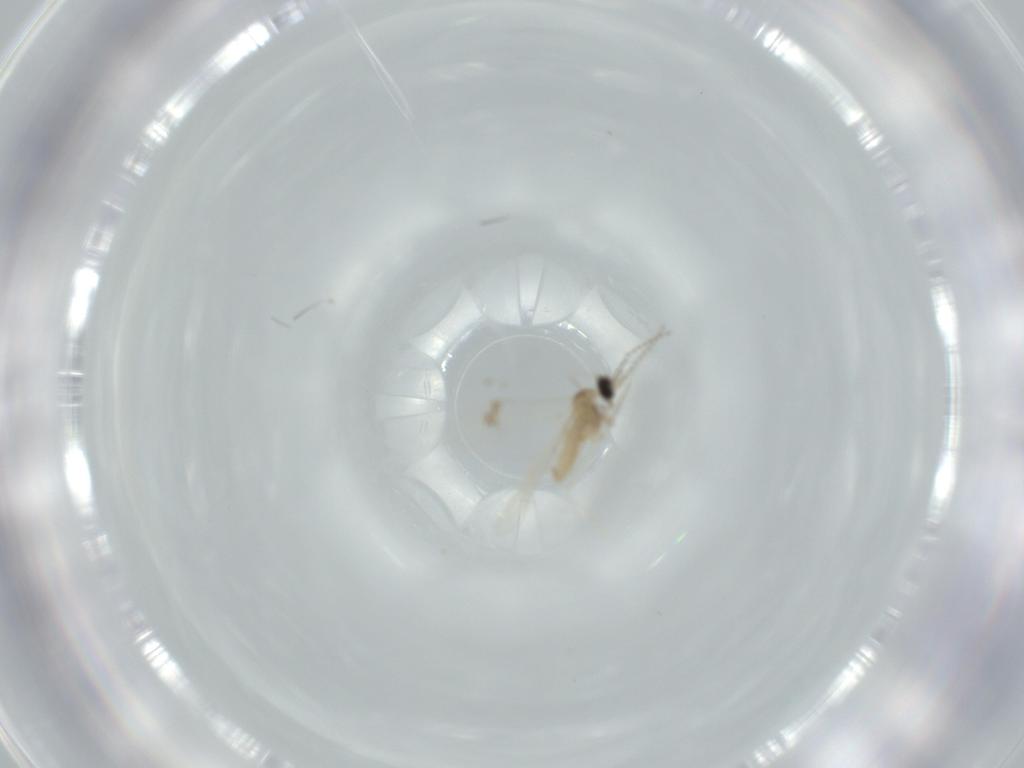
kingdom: Animalia
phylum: Arthropoda
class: Insecta
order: Diptera
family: Cecidomyiidae
